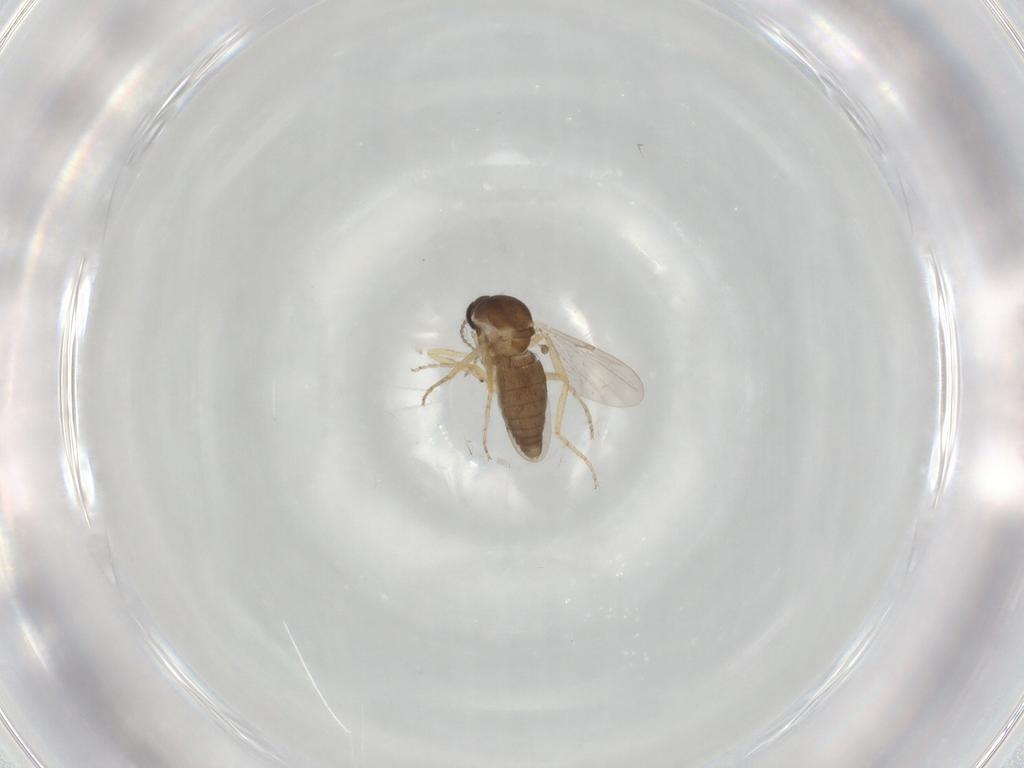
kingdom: Animalia
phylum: Arthropoda
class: Insecta
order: Diptera
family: Ceratopogonidae
